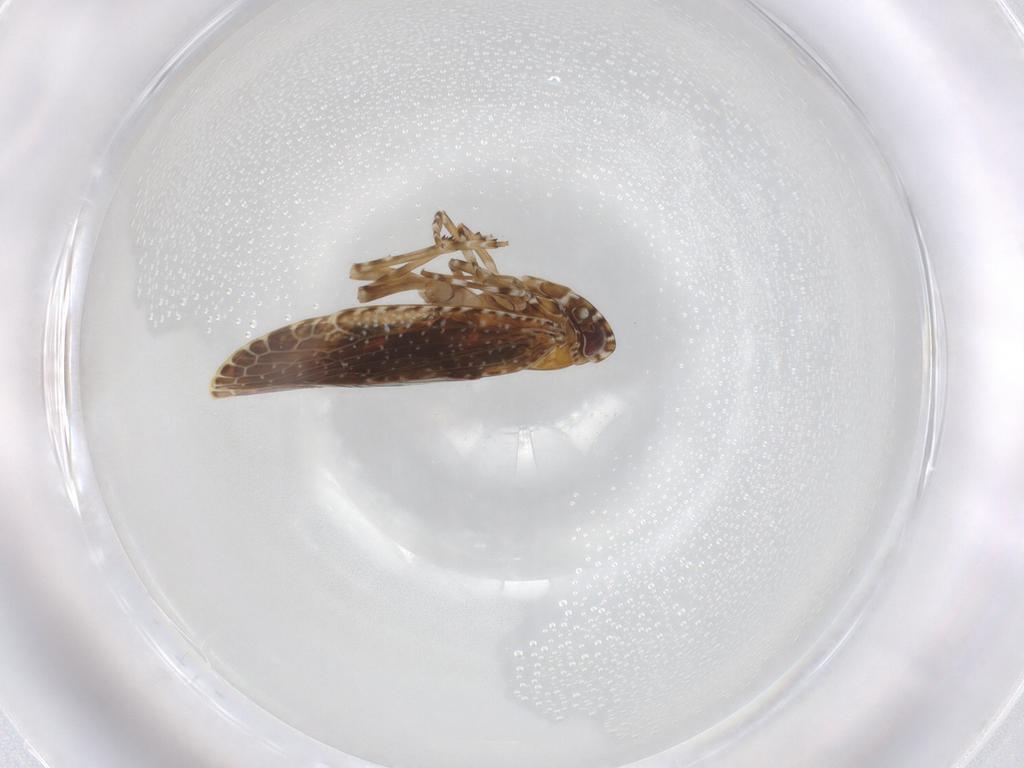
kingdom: Animalia
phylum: Arthropoda
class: Insecta
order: Hemiptera
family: Achilidae
